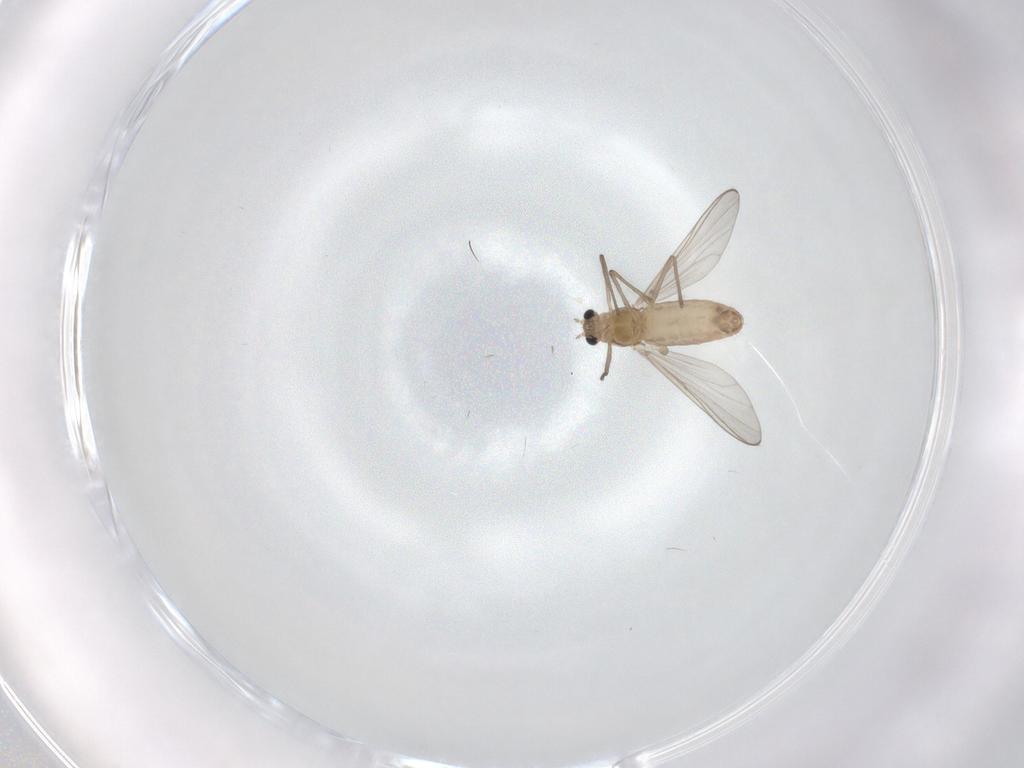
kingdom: Animalia
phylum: Arthropoda
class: Insecta
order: Diptera
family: Chironomidae
